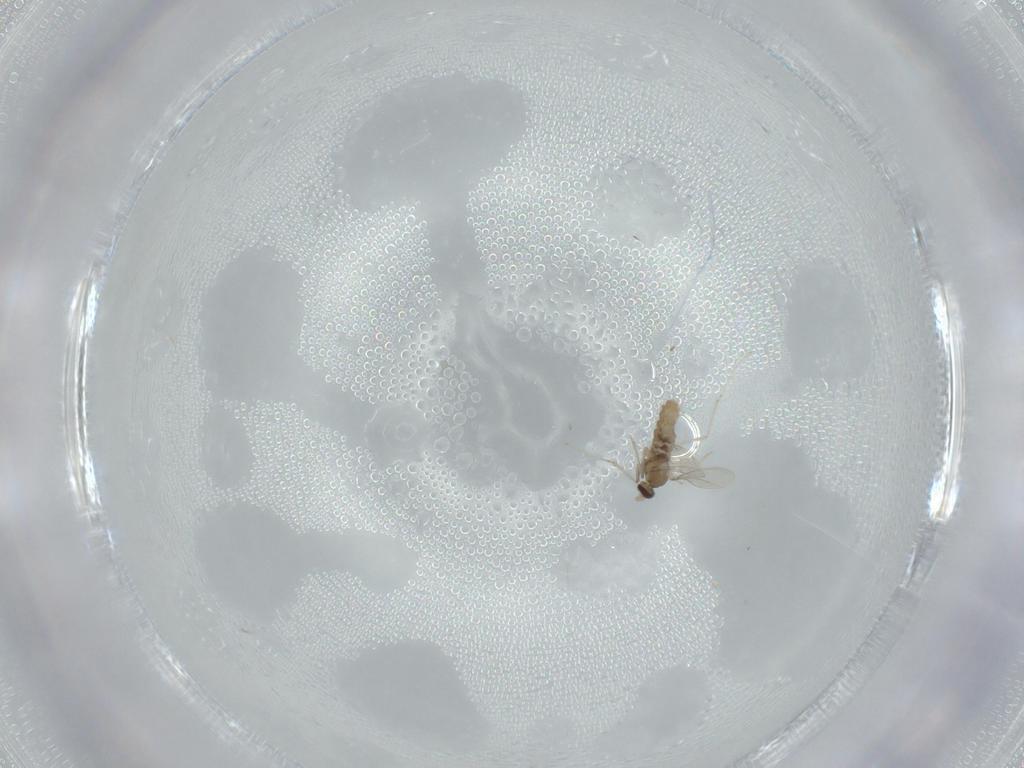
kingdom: Animalia
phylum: Arthropoda
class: Insecta
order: Diptera
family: Cecidomyiidae
